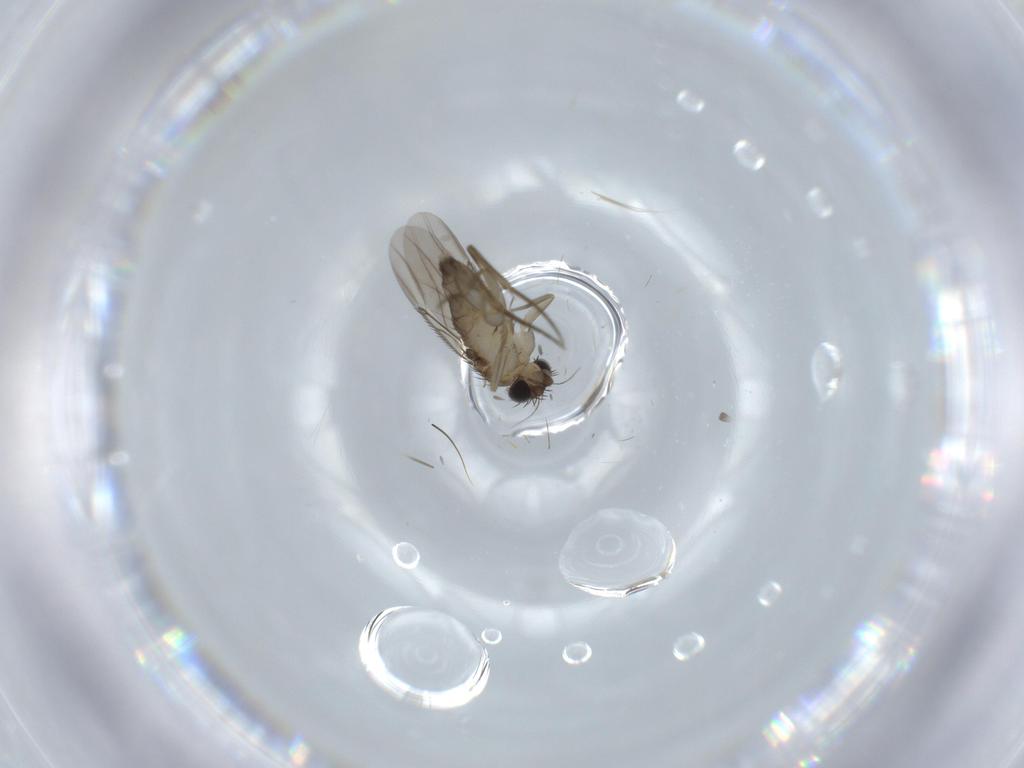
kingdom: Animalia
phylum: Arthropoda
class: Insecta
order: Diptera
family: Phoridae
